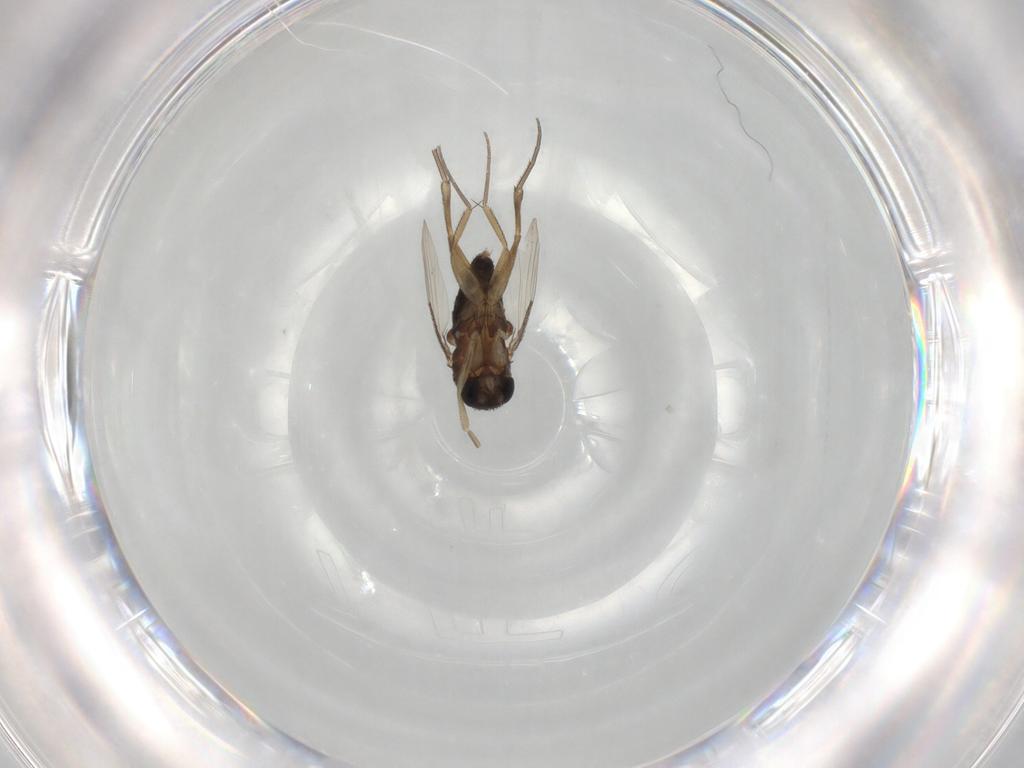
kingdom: Animalia
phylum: Arthropoda
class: Insecta
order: Diptera
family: Phoridae
